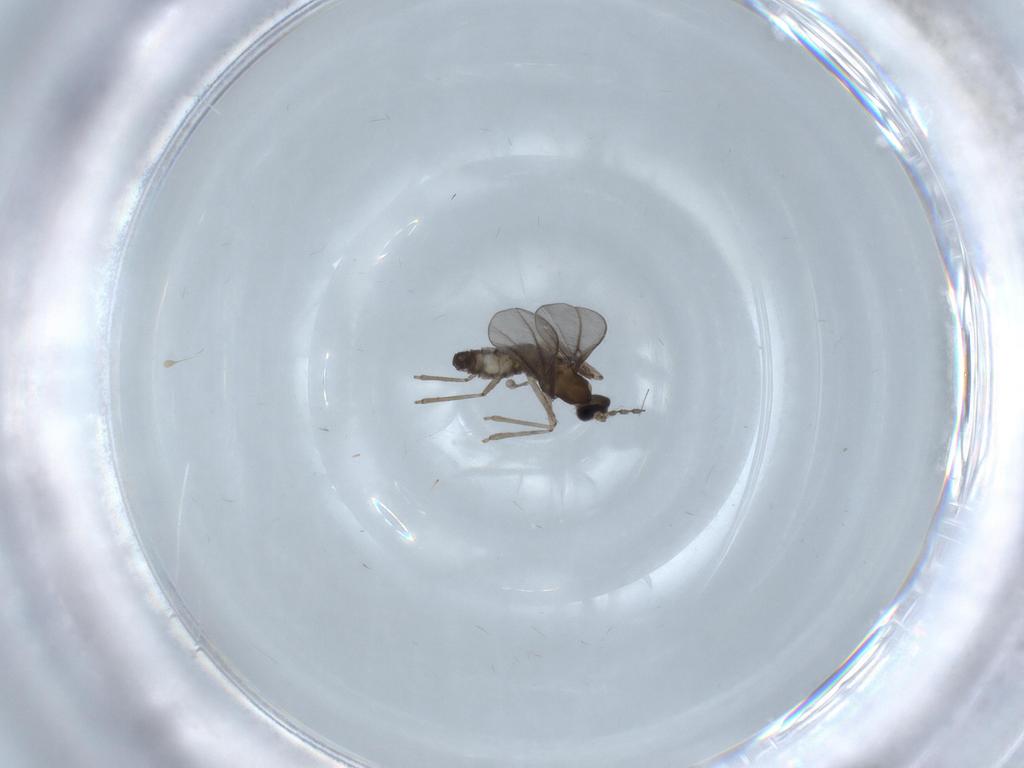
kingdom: Animalia
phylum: Arthropoda
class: Insecta
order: Diptera
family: Cecidomyiidae
